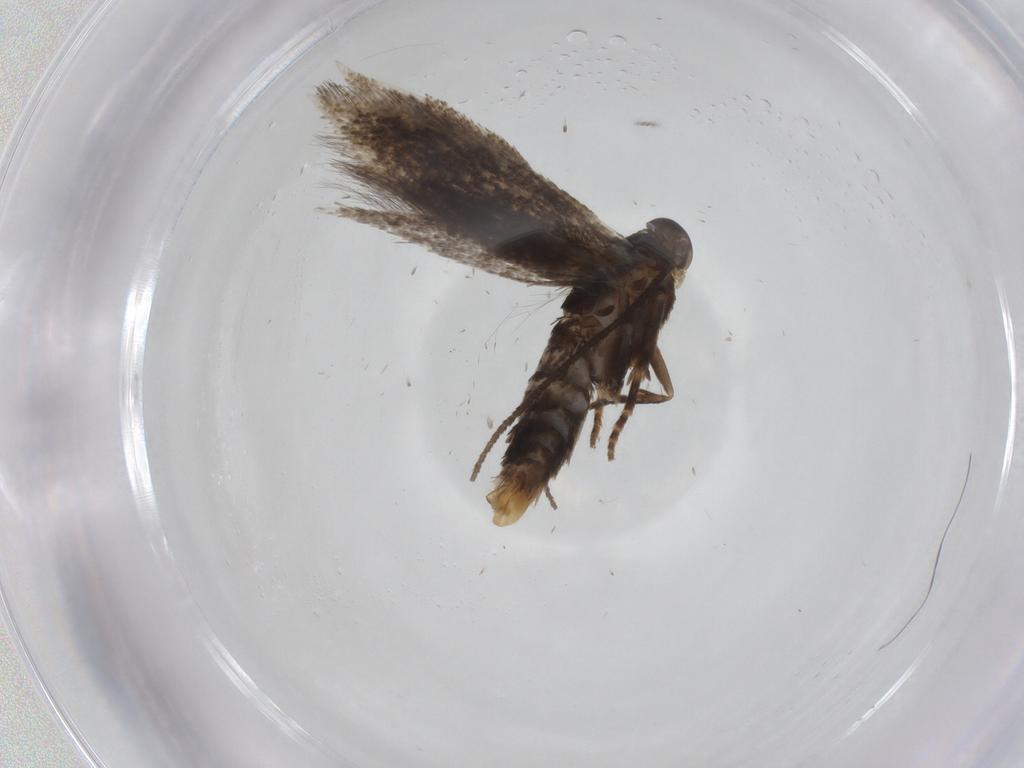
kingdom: Animalia
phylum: Arthropoda
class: Insecta
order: Lepidoptera
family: Elachistidae
